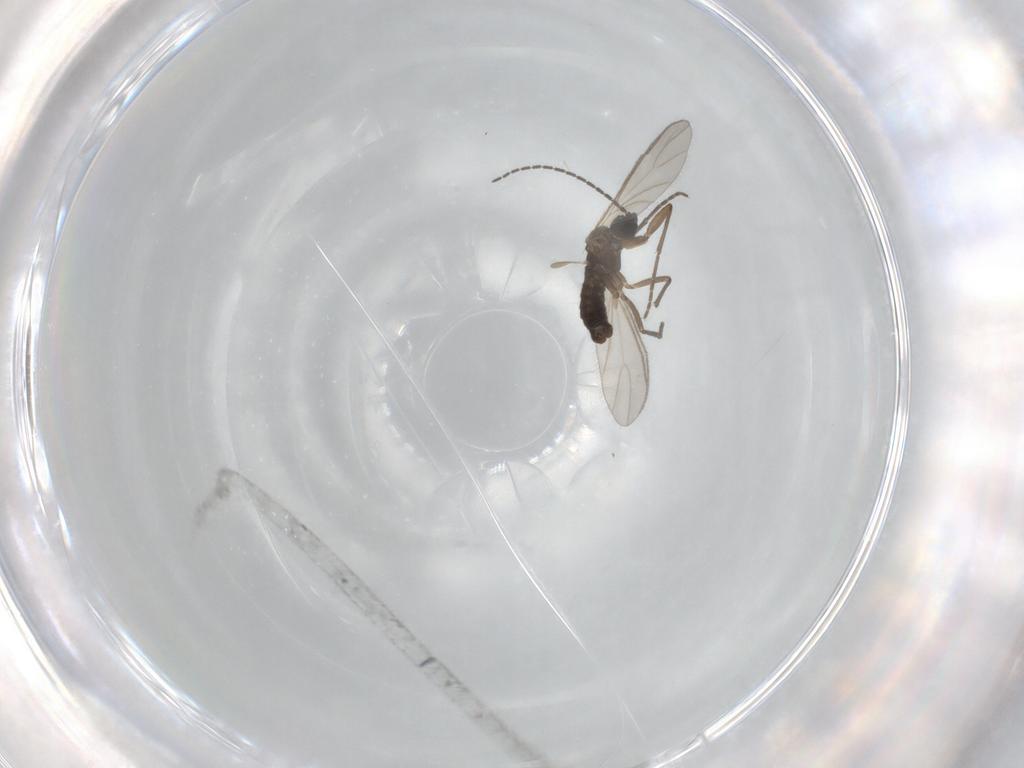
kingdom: Animalia
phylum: Arthropoda
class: Insecta
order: Diptera
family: Sciaridae
